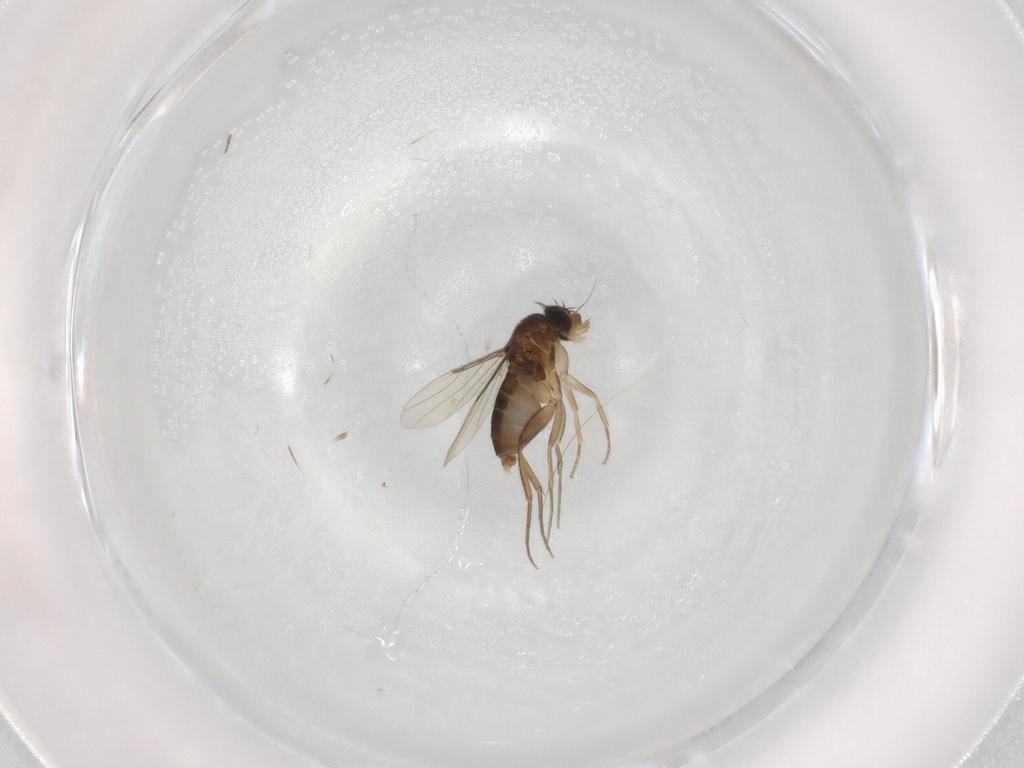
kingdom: Animalia
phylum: Arthropoda
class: Insecta
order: Diptera
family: Phoridae
